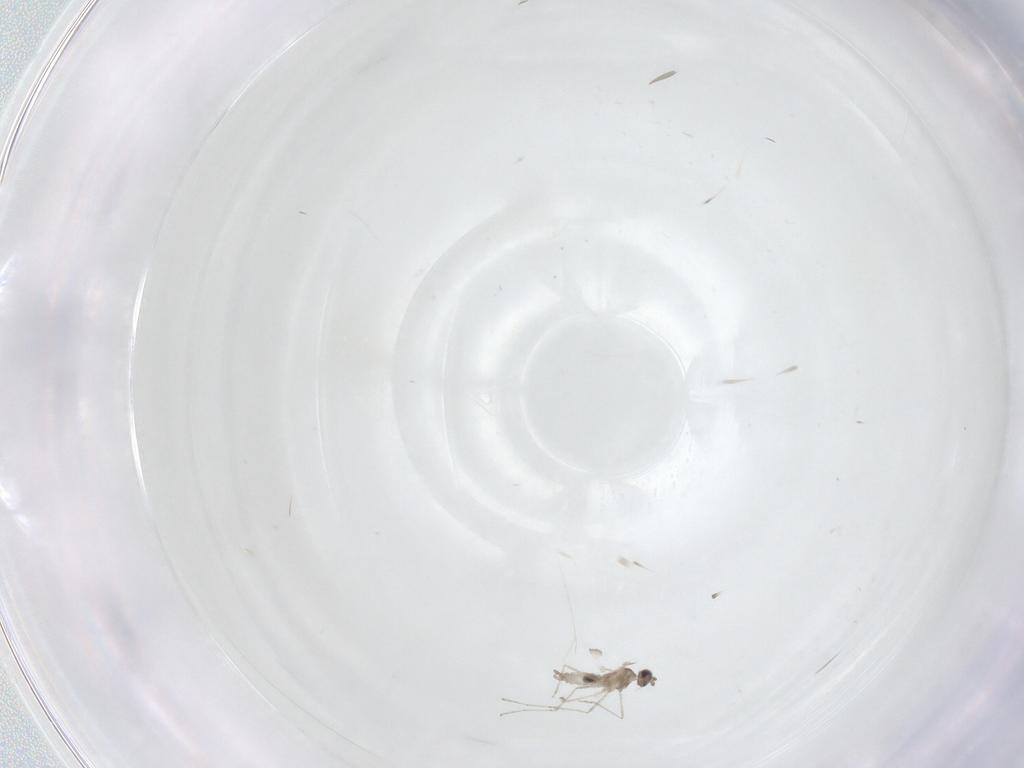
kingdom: Animalia
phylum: Arthropoda
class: Insecta
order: Diptera
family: Cecidomyiidae
